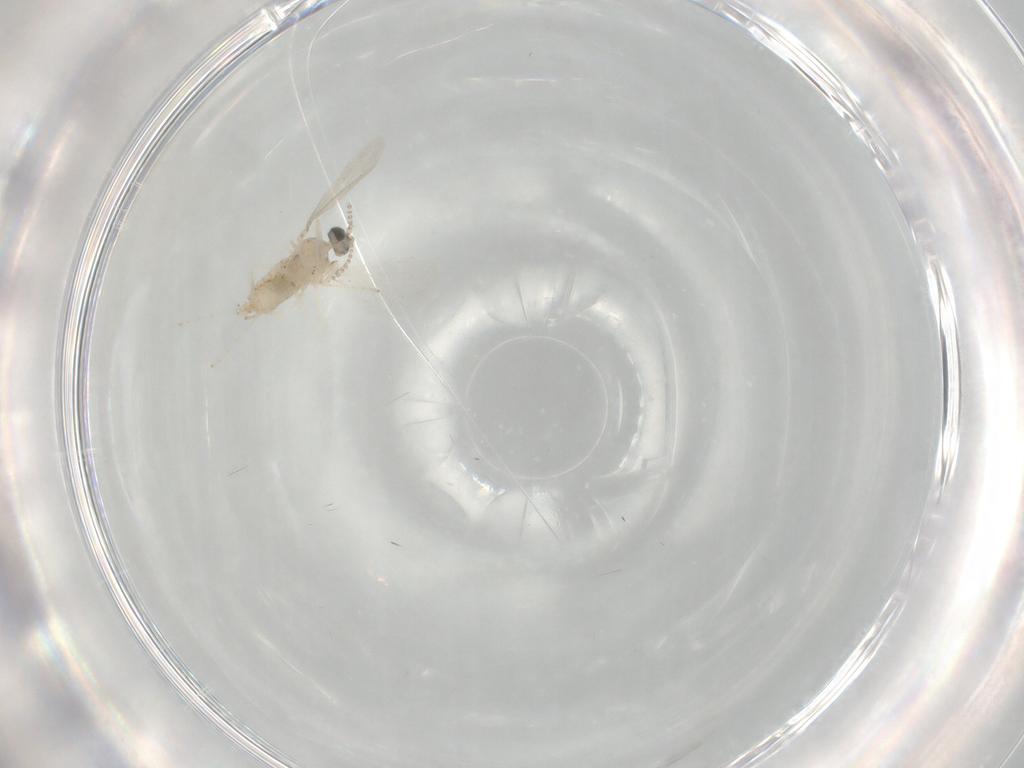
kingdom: Animalia
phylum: Arthropoda
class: Insecta
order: Diptera
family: Cecidomyiidae
